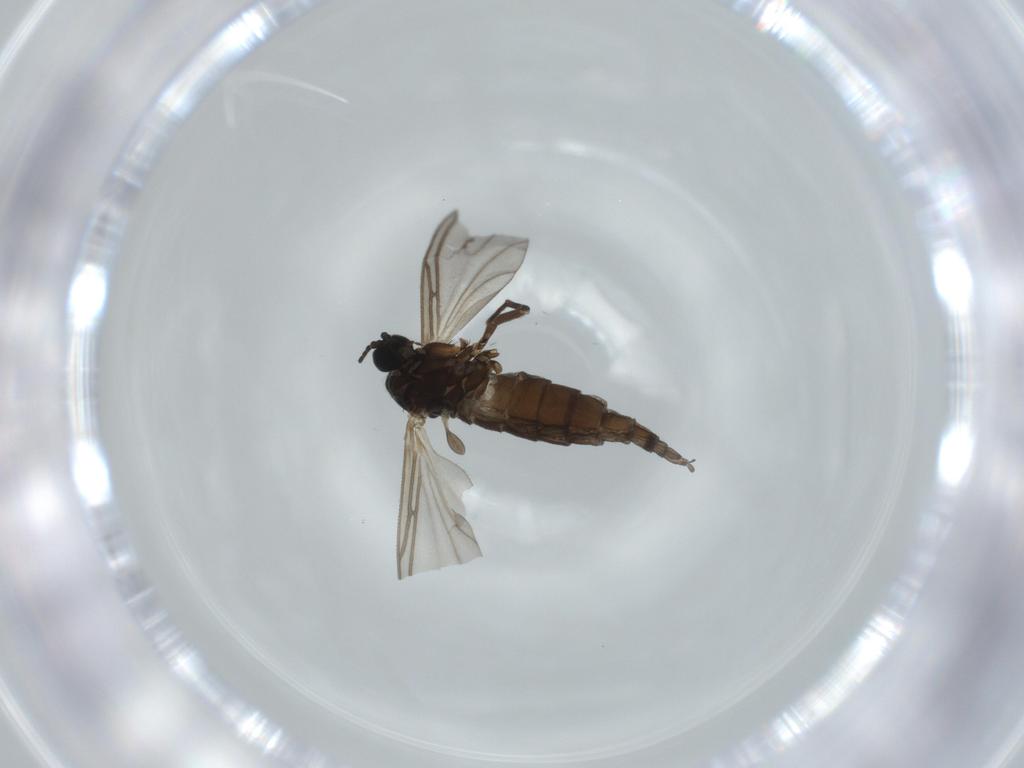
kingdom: Animalia
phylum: Arthropoda
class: Insecta
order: Diptera
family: Sciaridae
